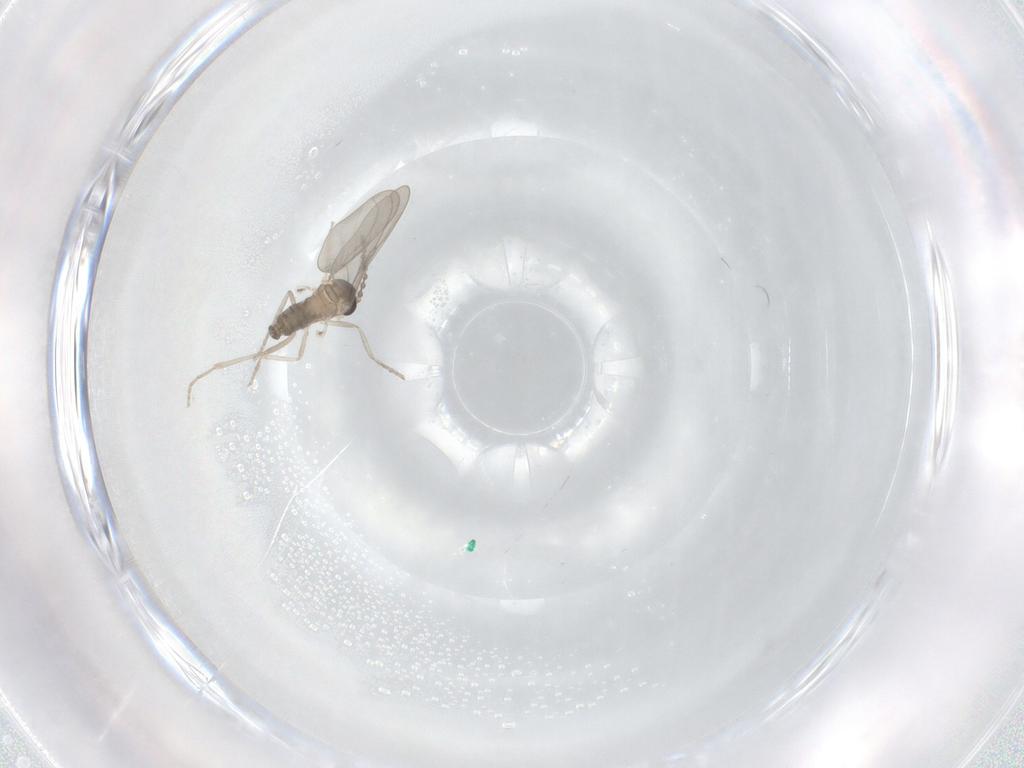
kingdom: Animalia
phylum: Arthropoda
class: Insecta
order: Diptera
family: Cecidomyiidae
